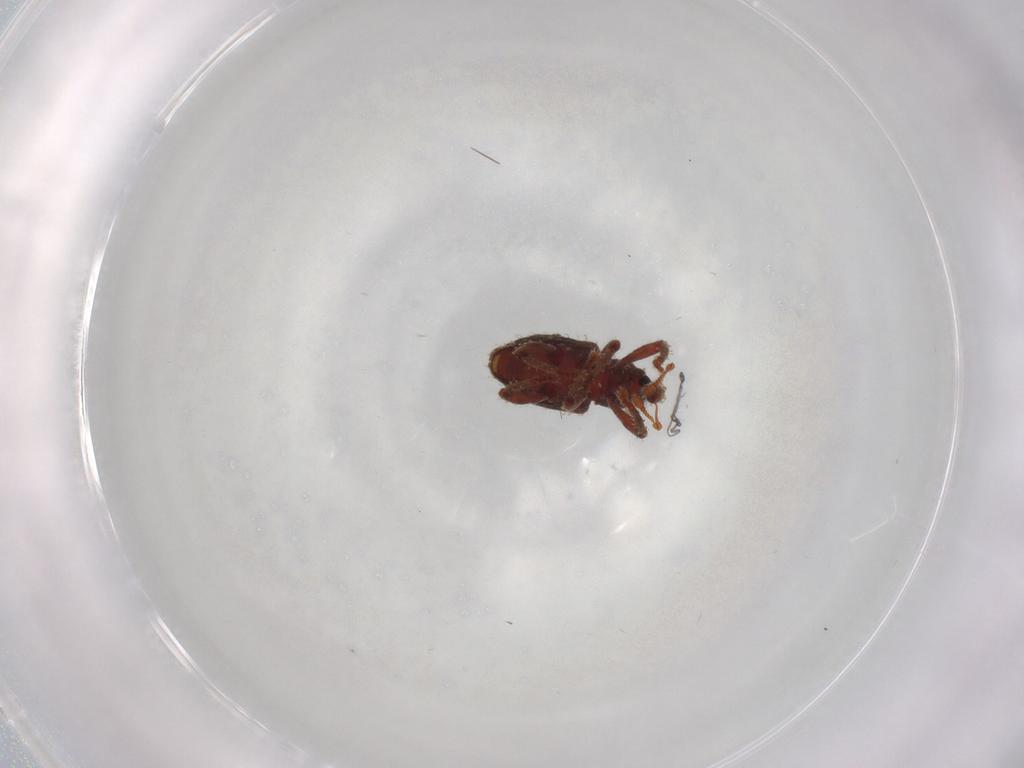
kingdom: Animalia
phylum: Arthropoda
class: Insecta
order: Coleoptera
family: Curculionidae
